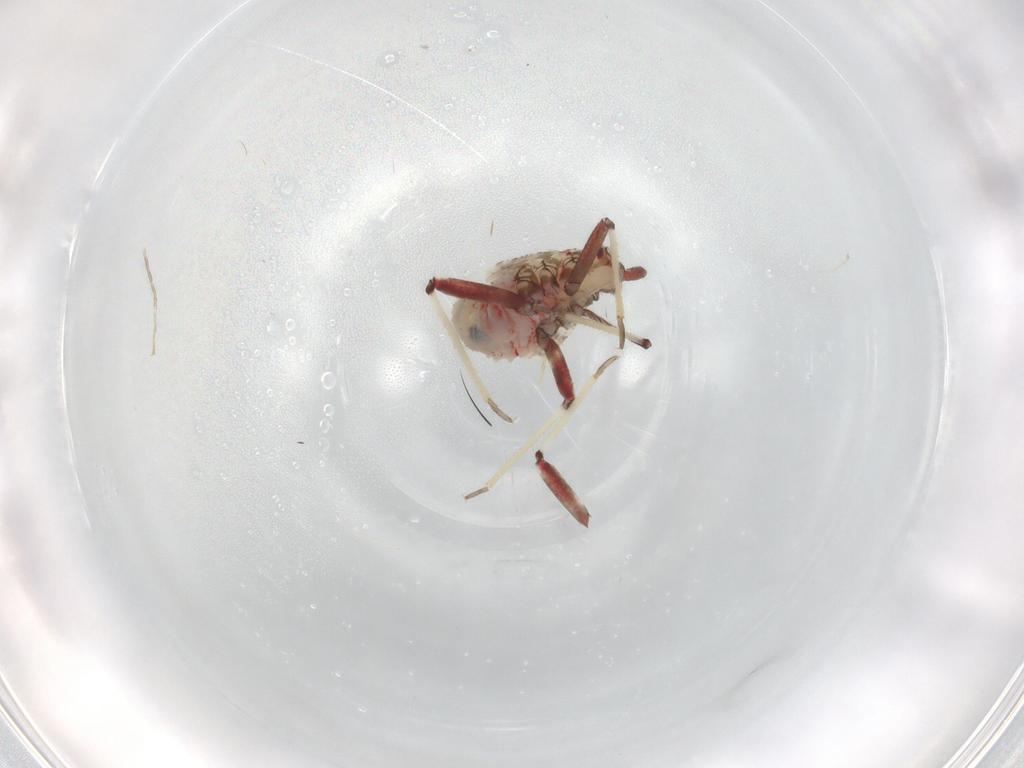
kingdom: Animalia
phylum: Arthropoda
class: Insecta
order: Hemiptera
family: Miridae
